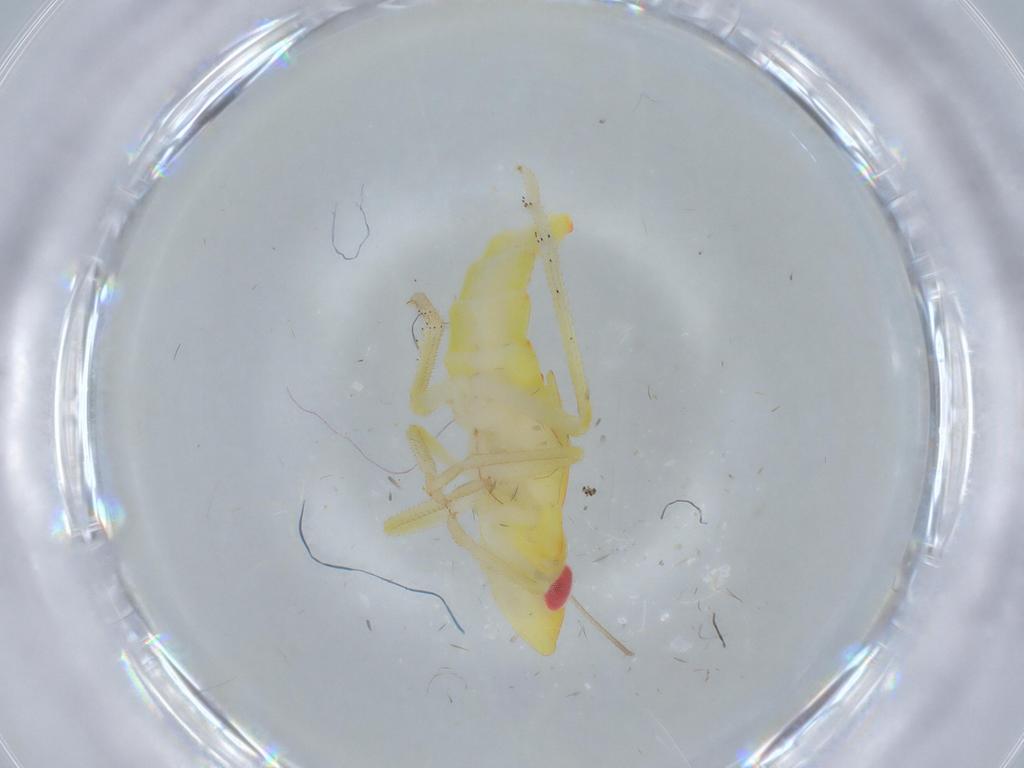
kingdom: Animalia
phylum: Arthropoda
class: Insecta
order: Hemiptera
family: Tropiduchidae
